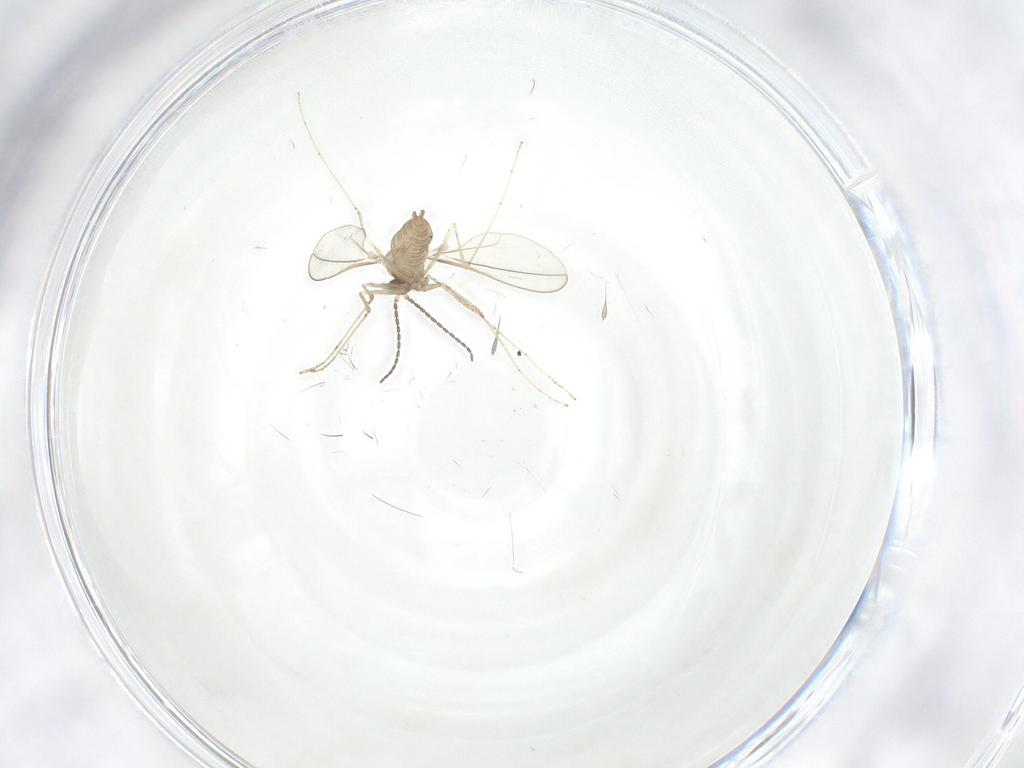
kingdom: Animalia
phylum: Arthropoda
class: Insecta
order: Diptera
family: Cecidomyiidae
